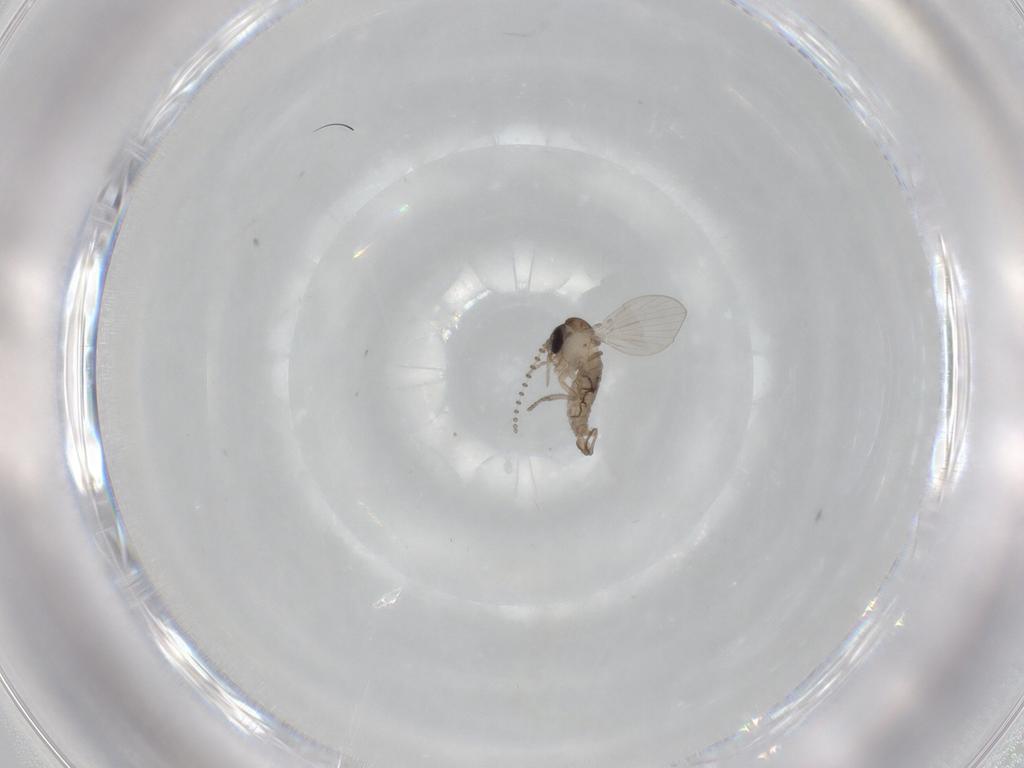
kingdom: Animalia
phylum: Arthropoda
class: Insecta
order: Diptera
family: Psychodidae
